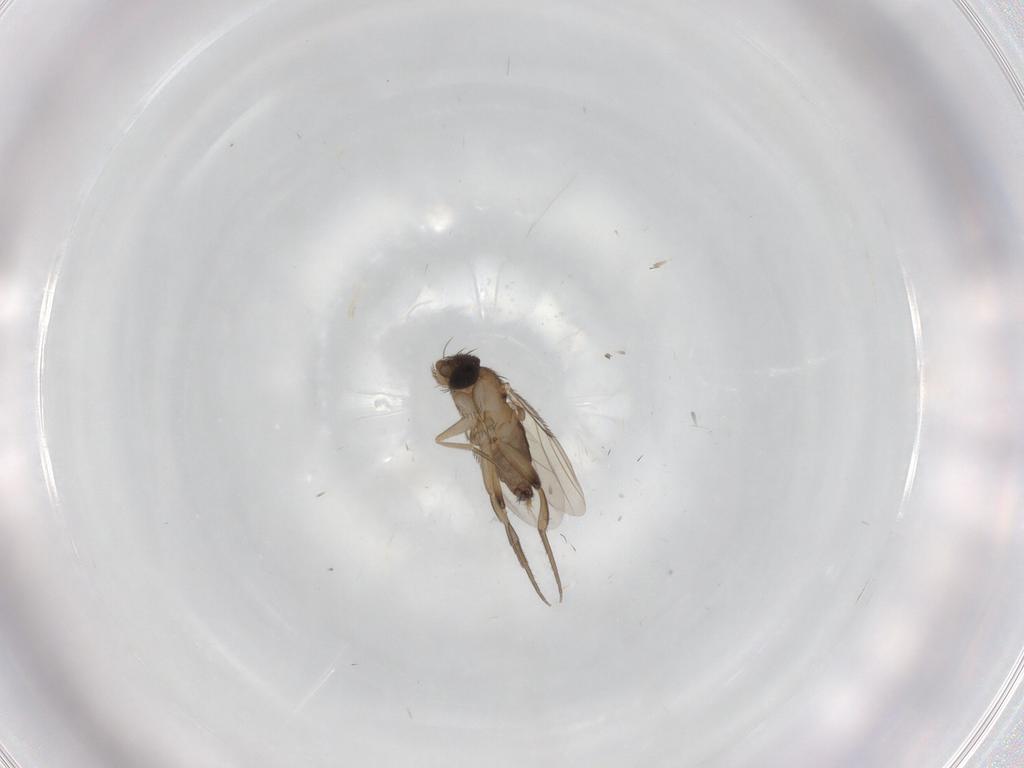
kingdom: Animalia
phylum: Arthropoda
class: Insecta
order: Diptera
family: Phoridae
